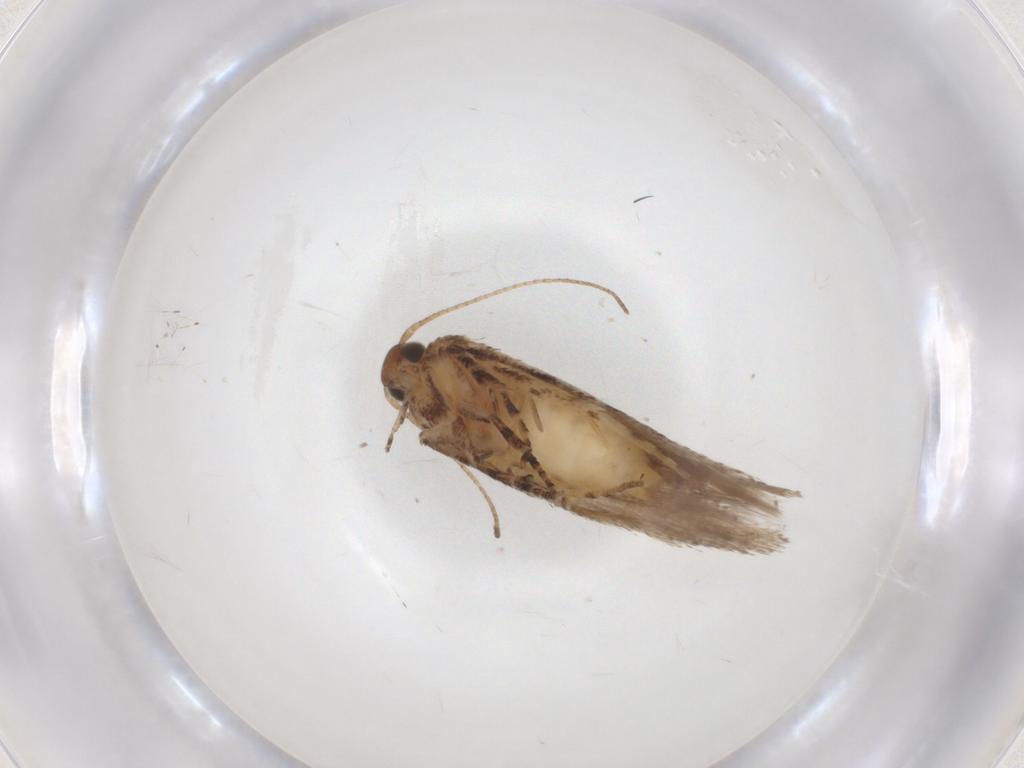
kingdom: Animalia
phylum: Arthropoda
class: Insecta
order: Lepidoptera
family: Gelechiidae
